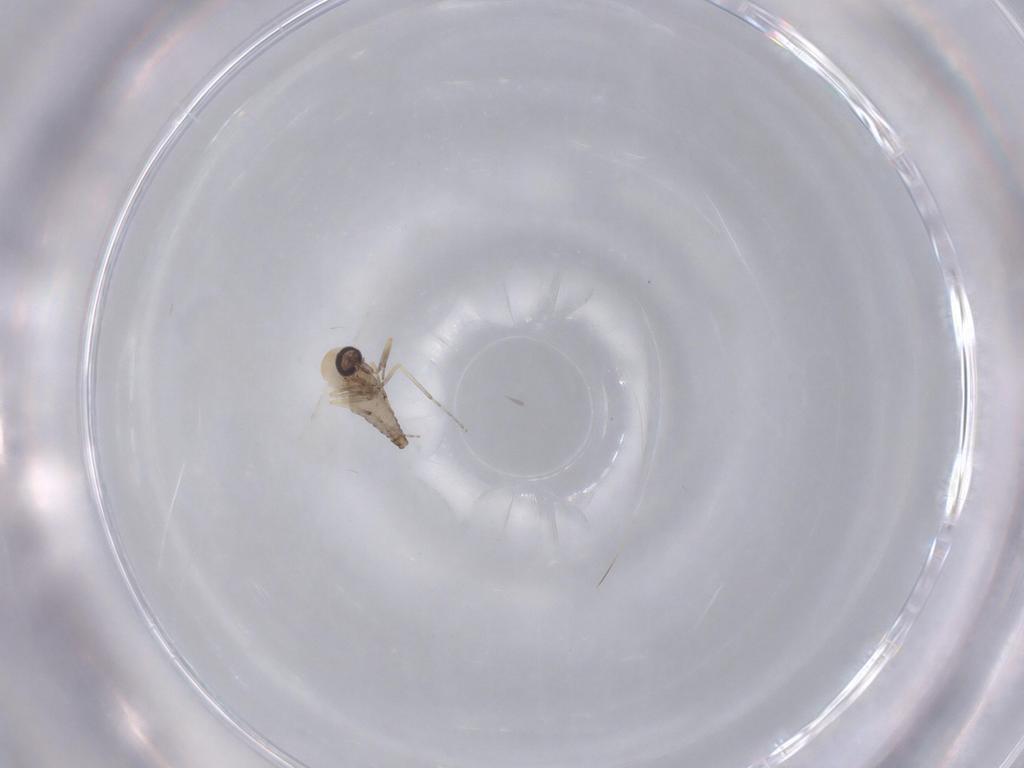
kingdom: Animalia
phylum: Arthropoda
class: Insecta
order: Diptera
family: Ceratopogonidae
